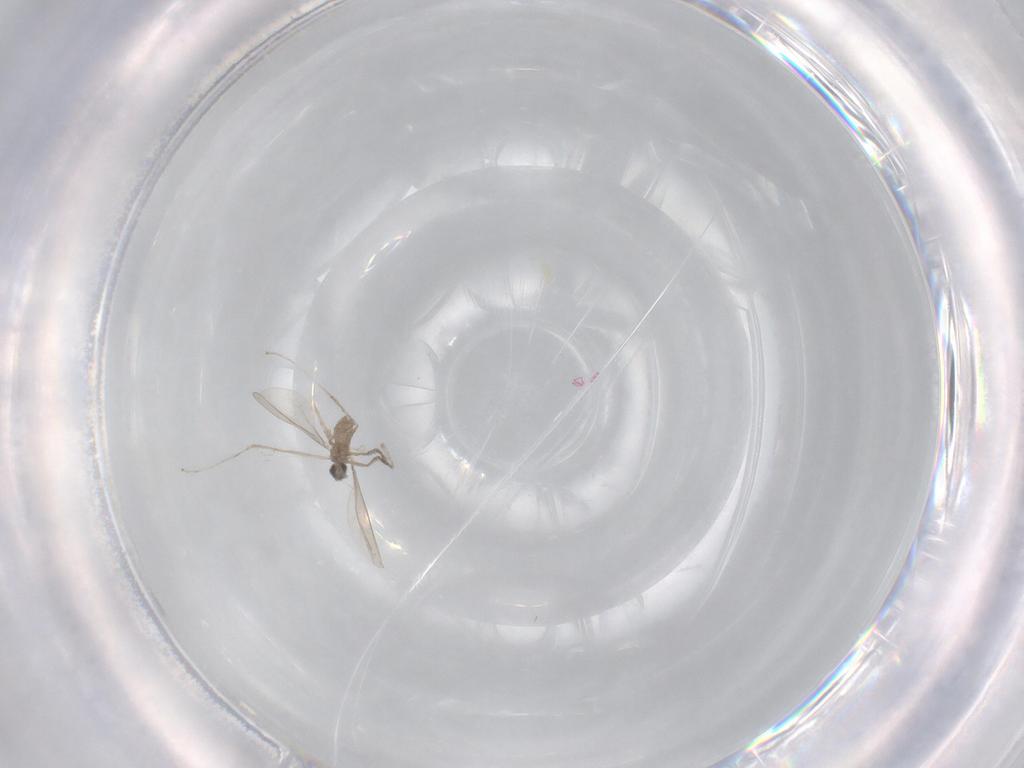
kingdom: Animalia
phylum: Arthropoda
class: Insecta
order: Diptera
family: Cecidomyiidae
